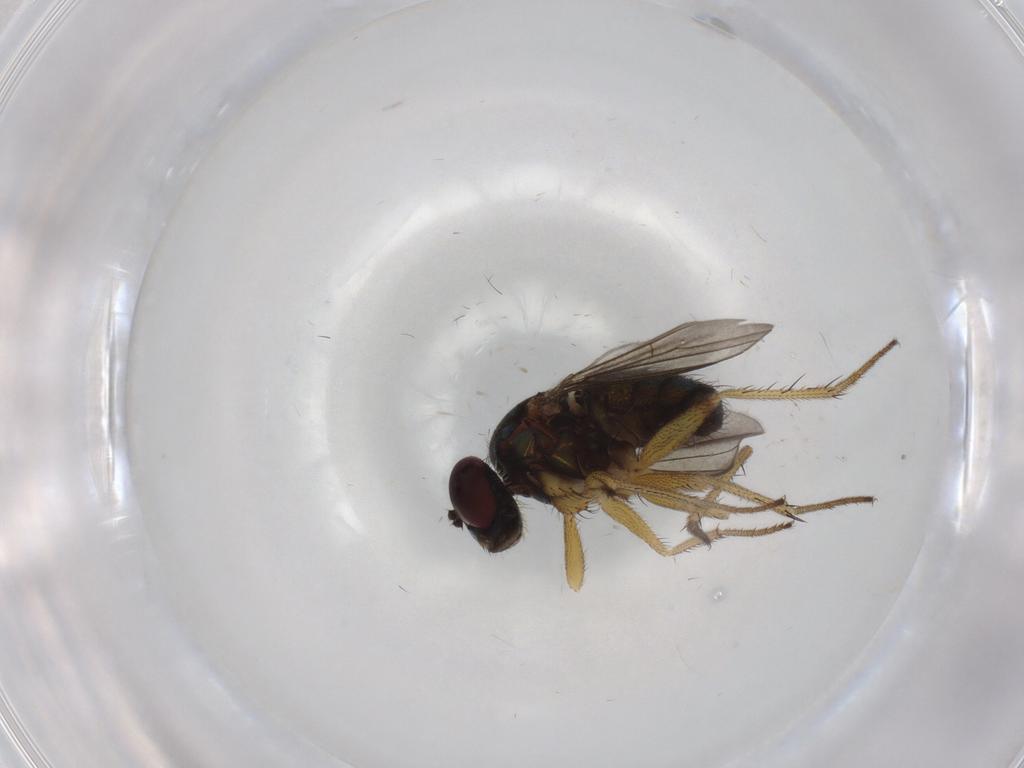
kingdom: Animalia
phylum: Arthropoda
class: Insecta
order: Diptera
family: Dolichopodidae
